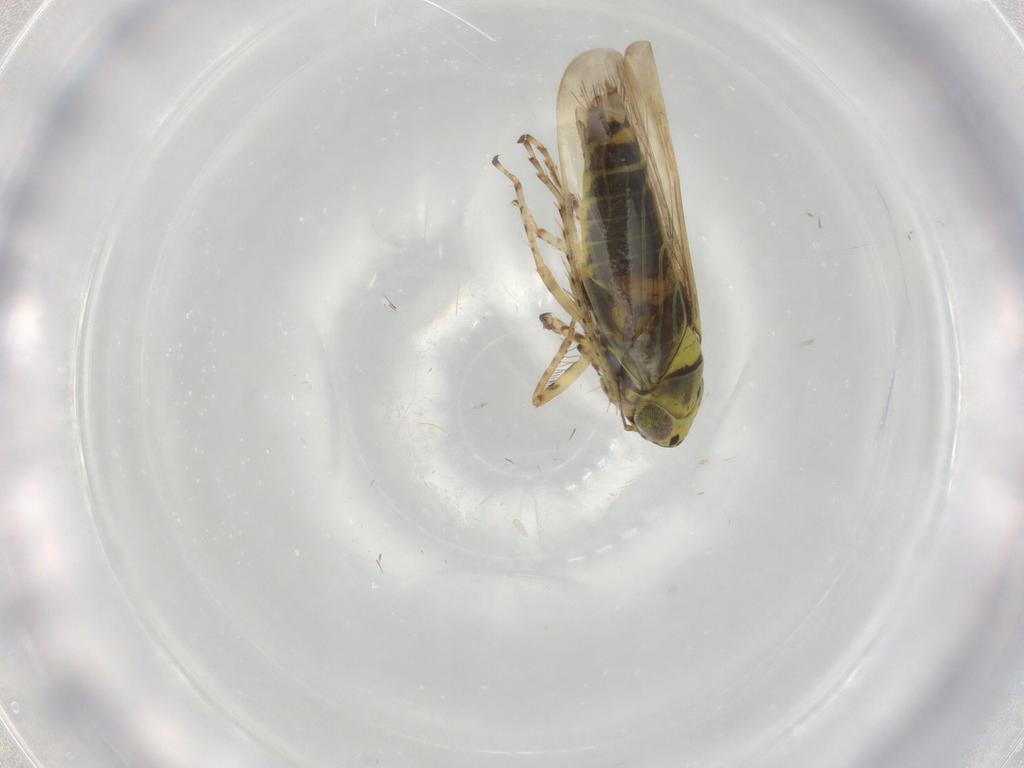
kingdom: Animalia
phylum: Arthropoda
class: Insecta
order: Hemiptera
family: Cicadellidae
